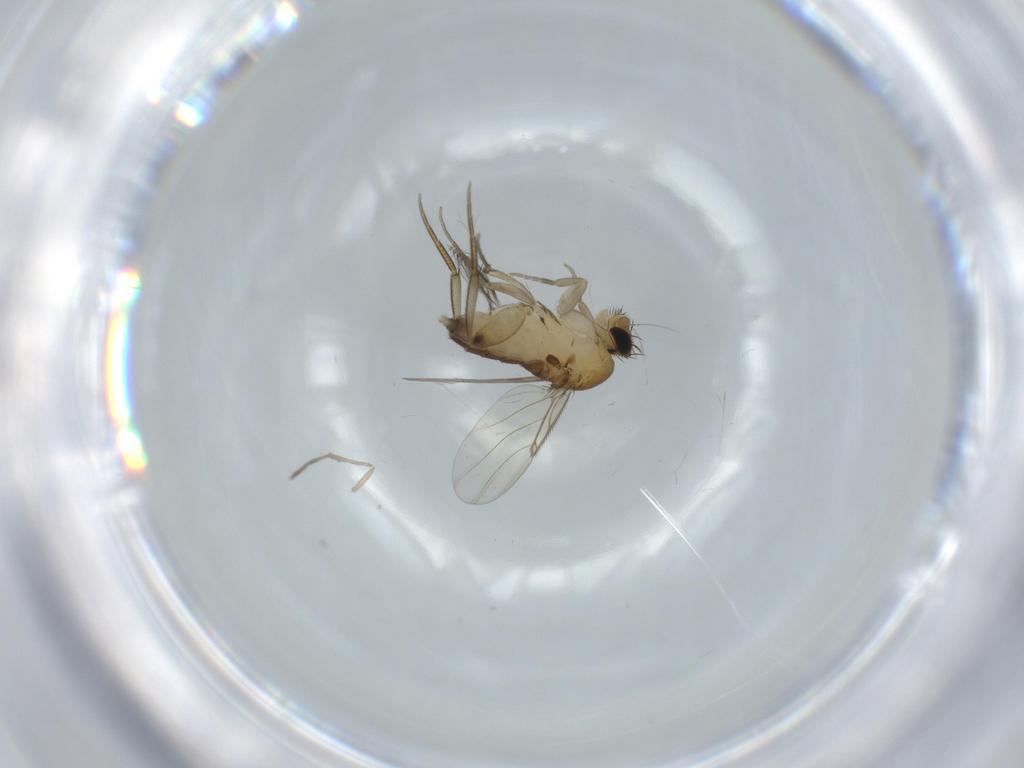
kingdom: Animalia
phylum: Arthropoda
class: Insecta
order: Diptera
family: Phoridae
